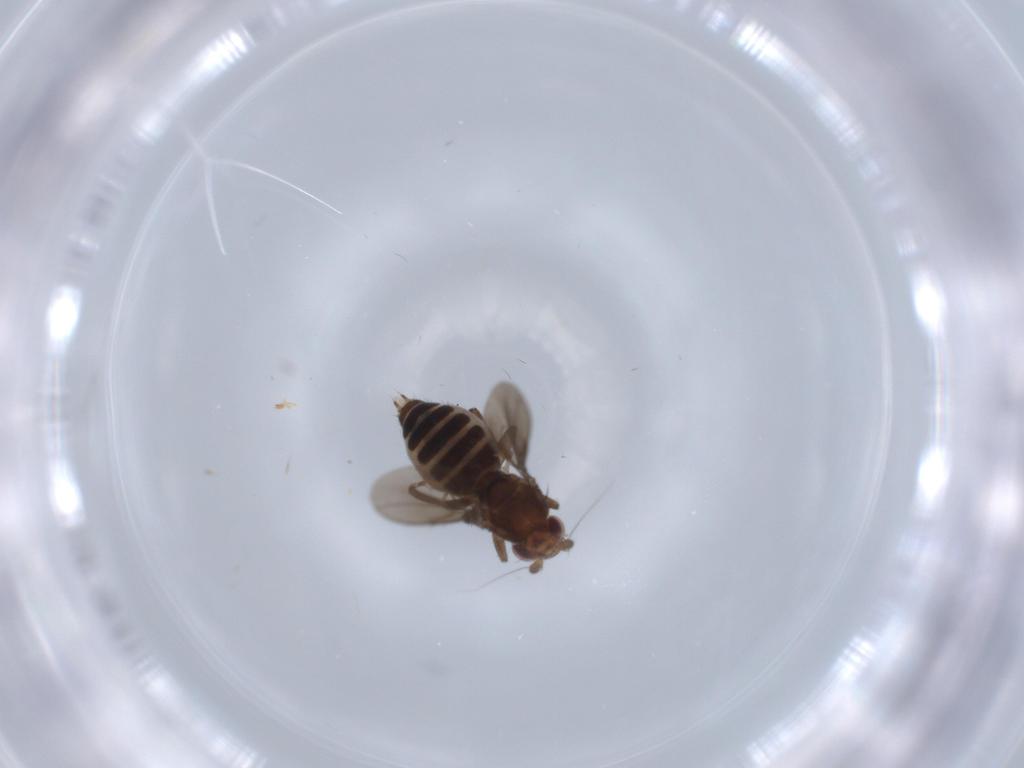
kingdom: Animalia
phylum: Arthropoda
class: Insecta
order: Diptera
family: Sphaeroceridae
